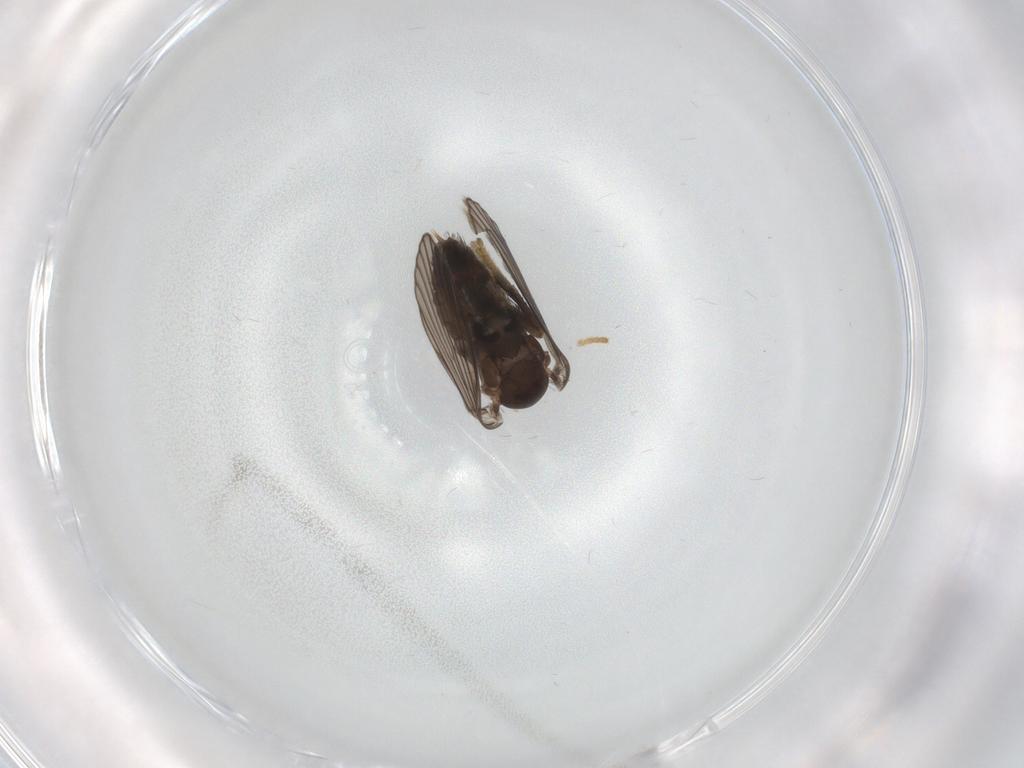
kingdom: Animalia
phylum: Arthropoda
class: Insecta
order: Diptera
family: Psychodidae
